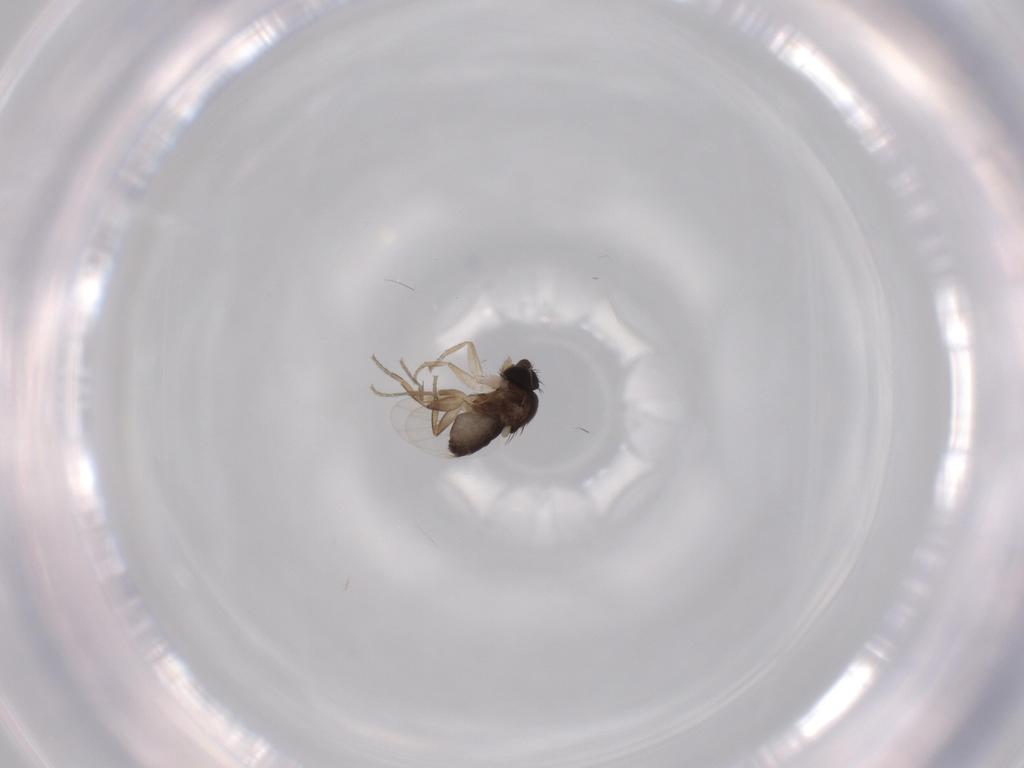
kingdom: Animalia
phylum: Arthropoda
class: Insecta
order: Diptera
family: Phoridae
